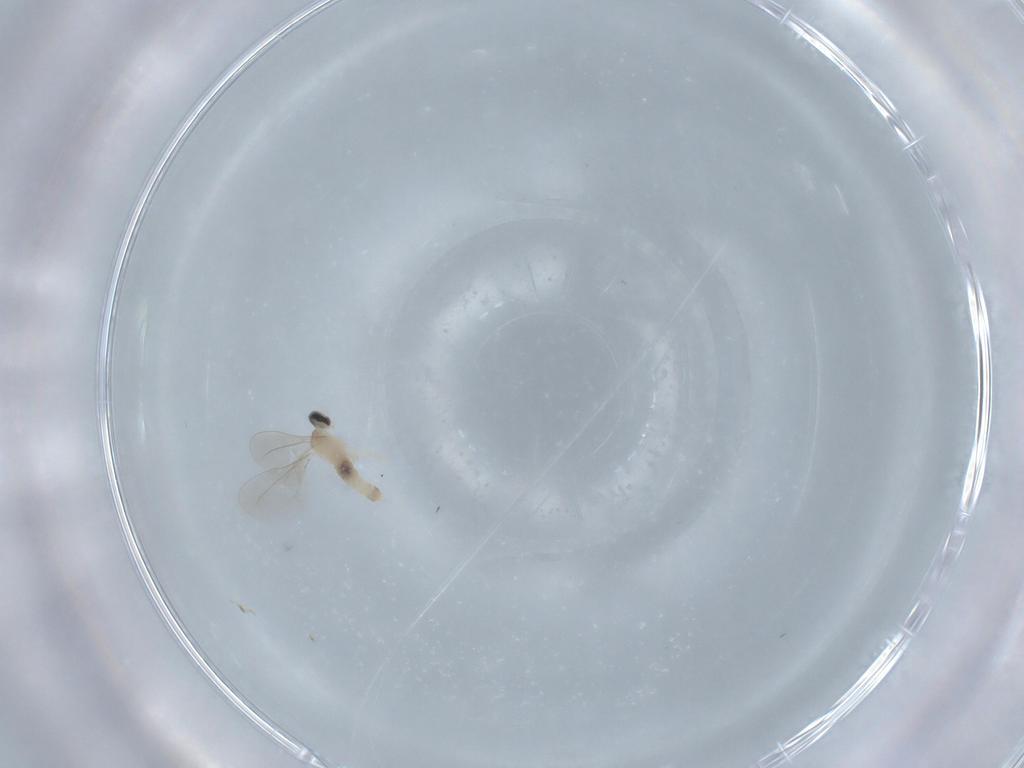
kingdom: Animalia
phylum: Arthropoda
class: Insecta
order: Diptera
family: Cecidomyiidae
